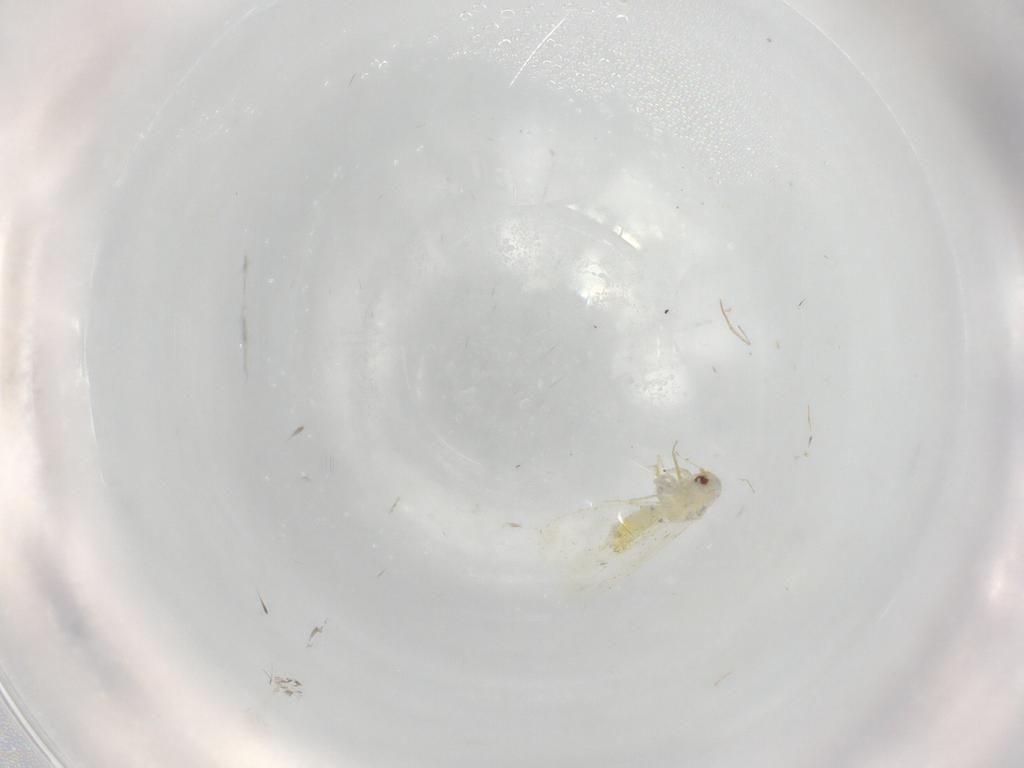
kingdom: Animalia
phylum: Arthropoda
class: Insecta
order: Hemiptera
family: Aleyrodidae
